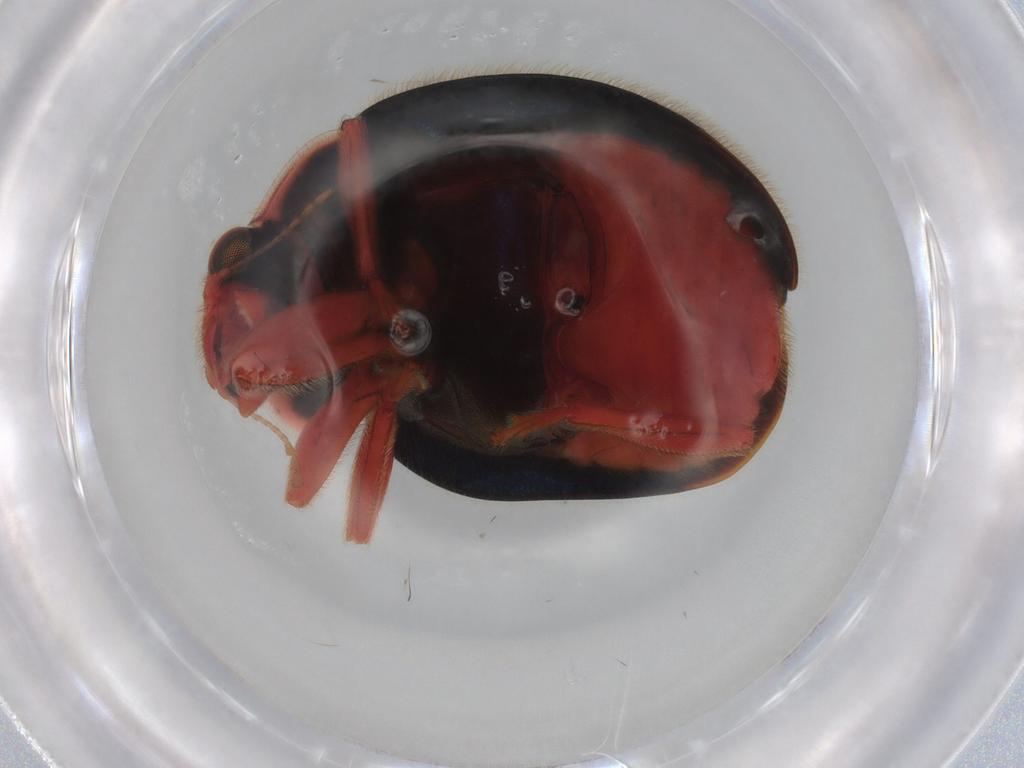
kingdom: Animalia
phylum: Arthropoda
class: Insecta
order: Coleoptera
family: Coccinellidae
